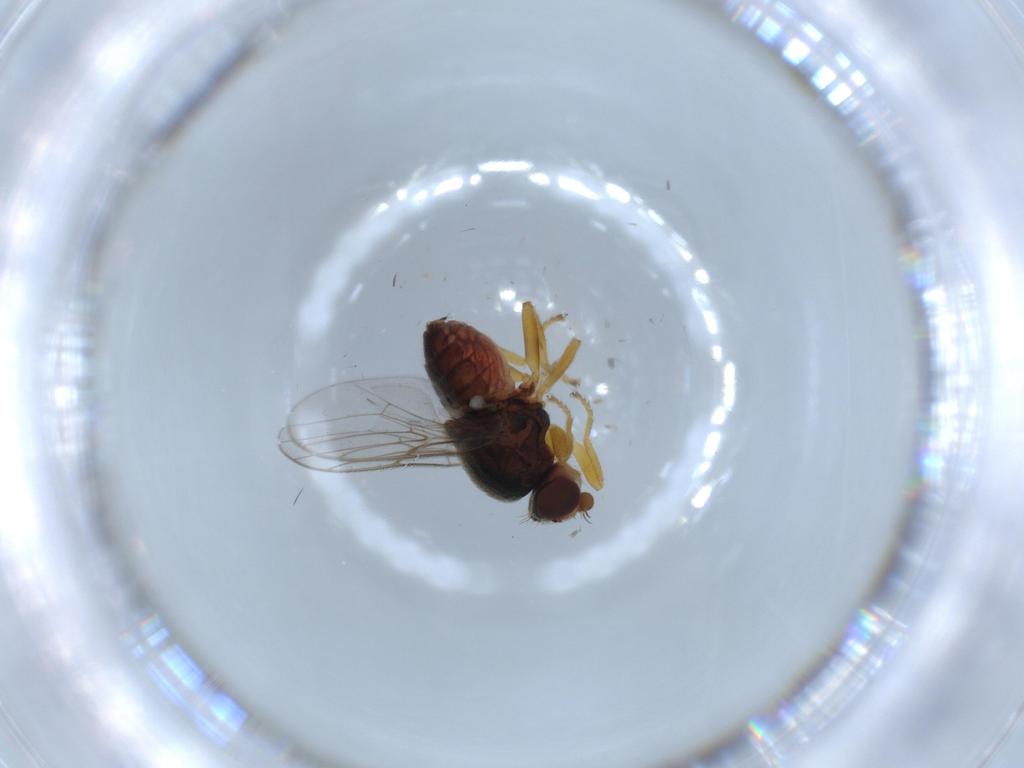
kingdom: Animalia
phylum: Arthropoda
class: Insecta
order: Diptera
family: Chloropidae
